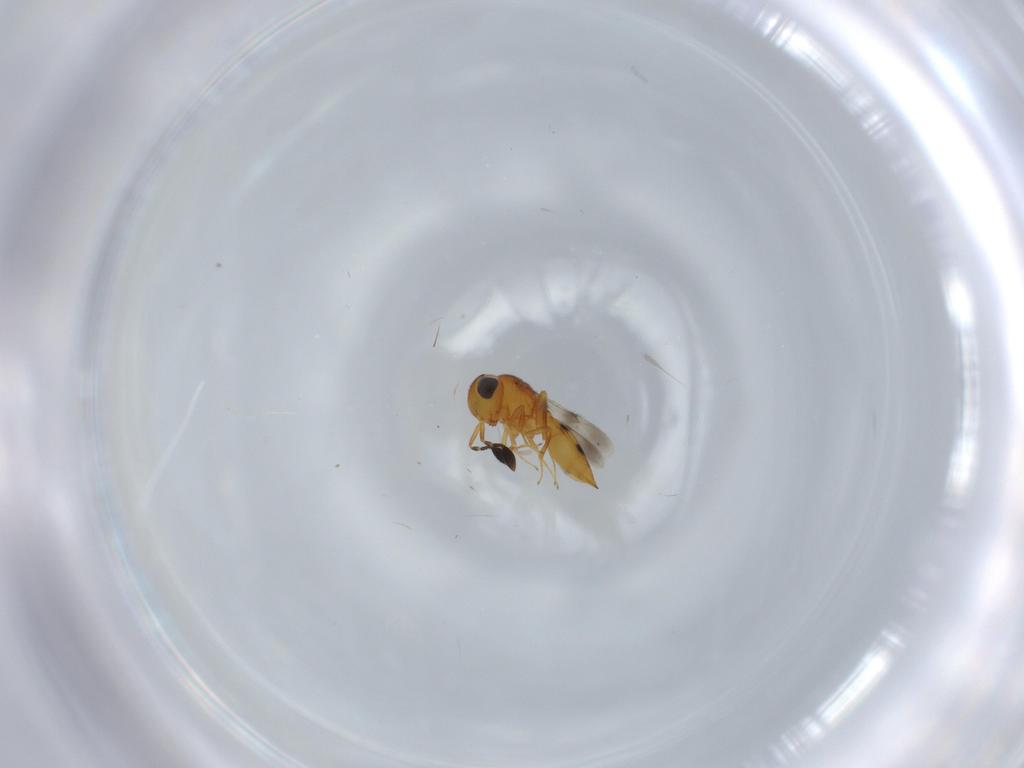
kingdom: Animalia
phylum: Arthropoda
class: Insecta
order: Hymenoptera
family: Scelionidae
